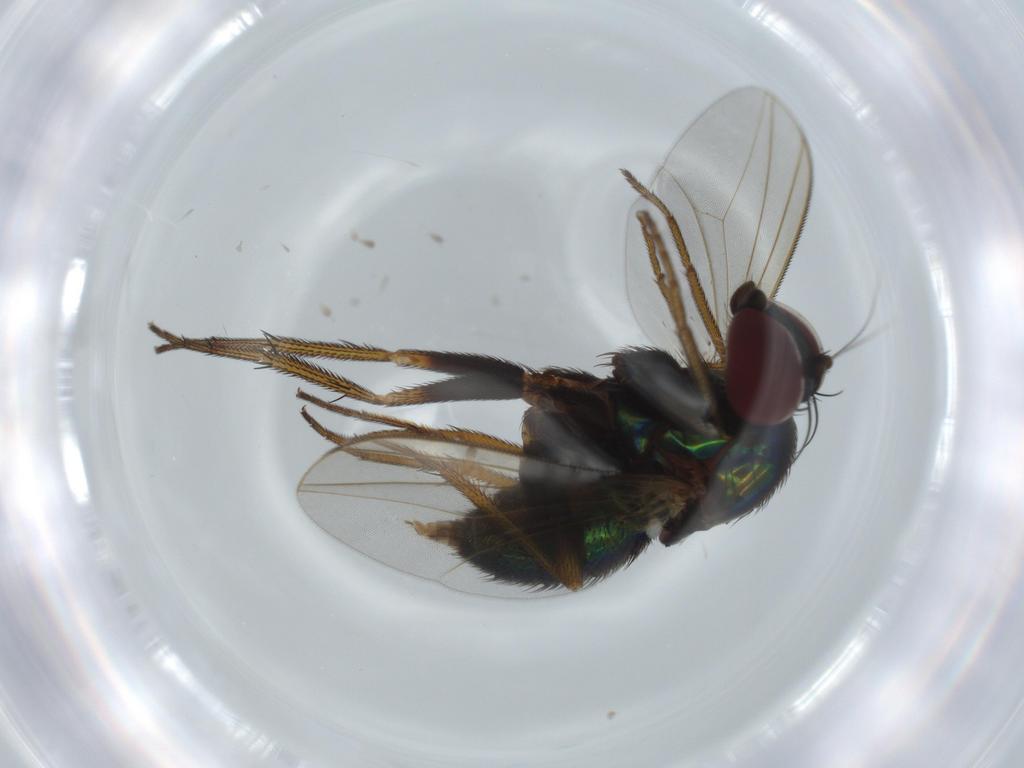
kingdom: Animalia
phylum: Arthropoda
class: Insecta
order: Diptera
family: Dolichopodidae
